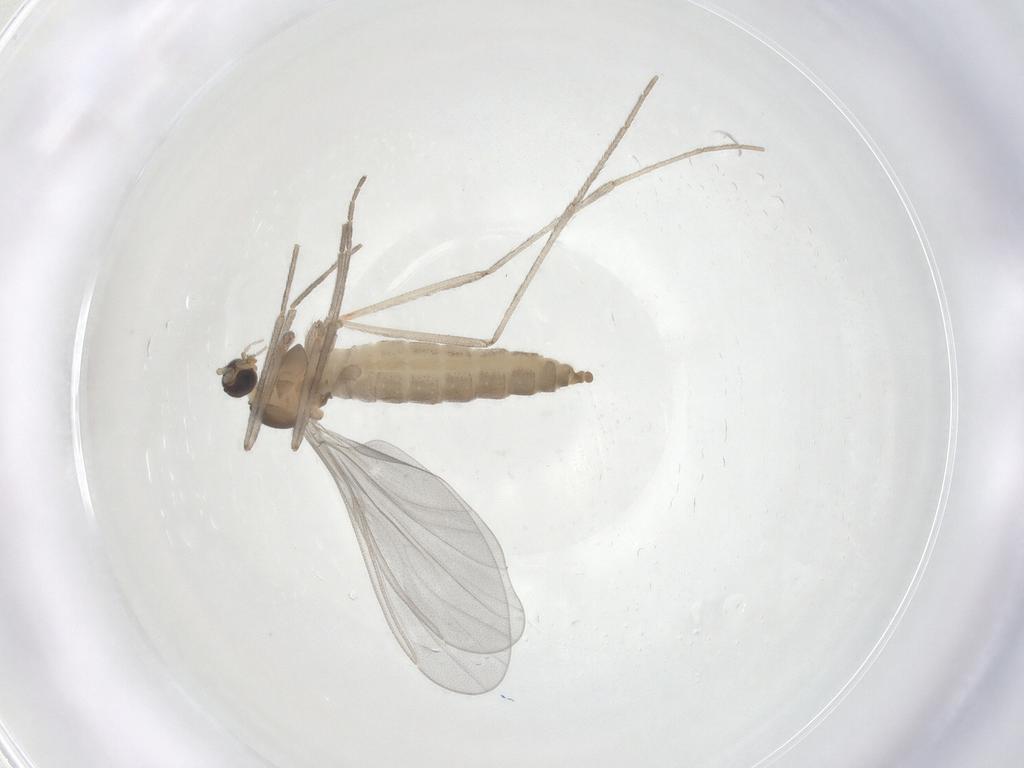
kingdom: Animalia
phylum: Arthropoda
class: Insecta
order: Diptera
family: Cecidomyiidae
